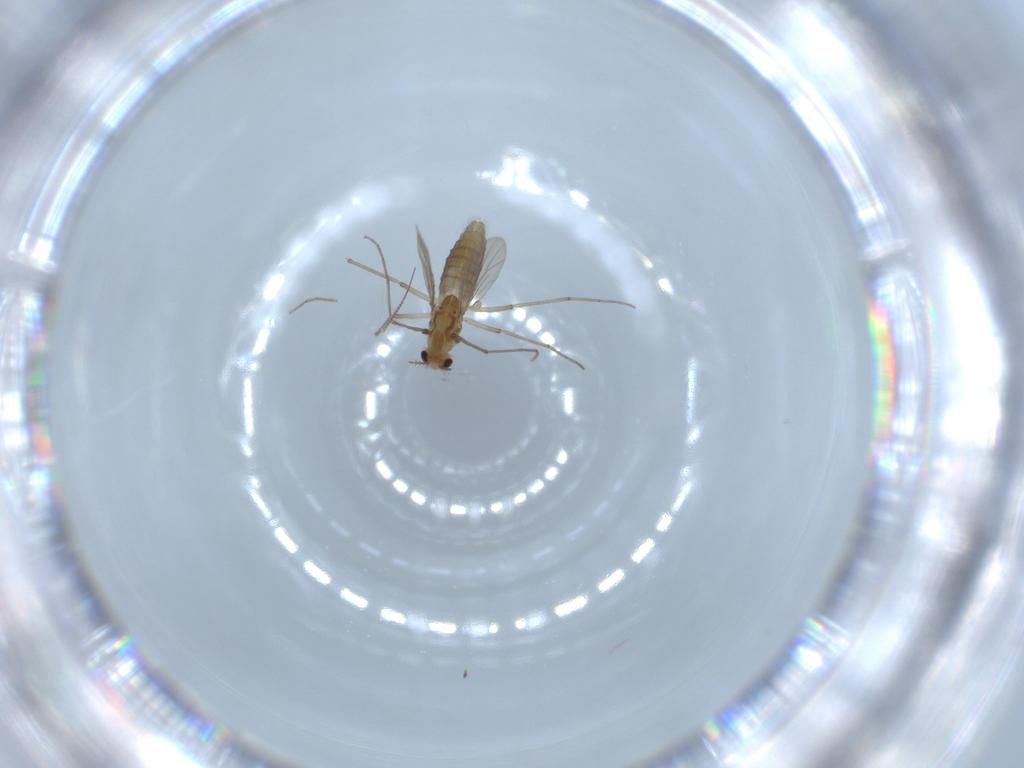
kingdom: Animalia
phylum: Arthropoda
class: Insecta
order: Diptera
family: Chironomidae
